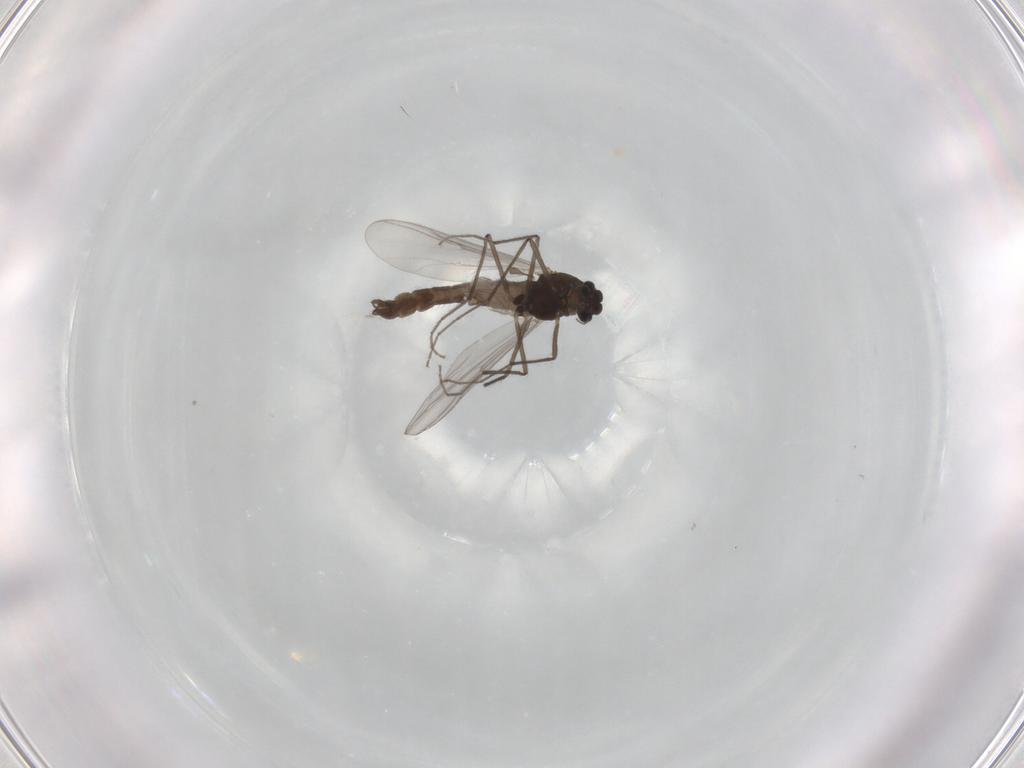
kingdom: Animalia
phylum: Arthropoda
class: Insecta
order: Diptera
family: Chironomidae
